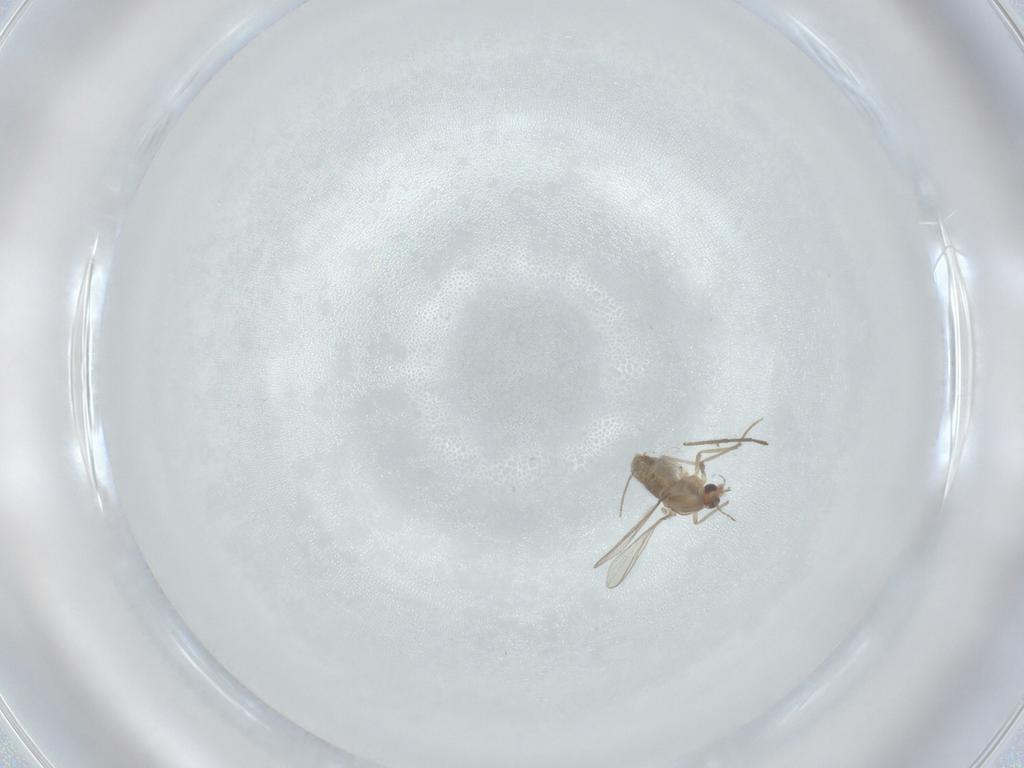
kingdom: Animalia
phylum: Arthropoda
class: Insecta
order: Diptera
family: Chironomidae
